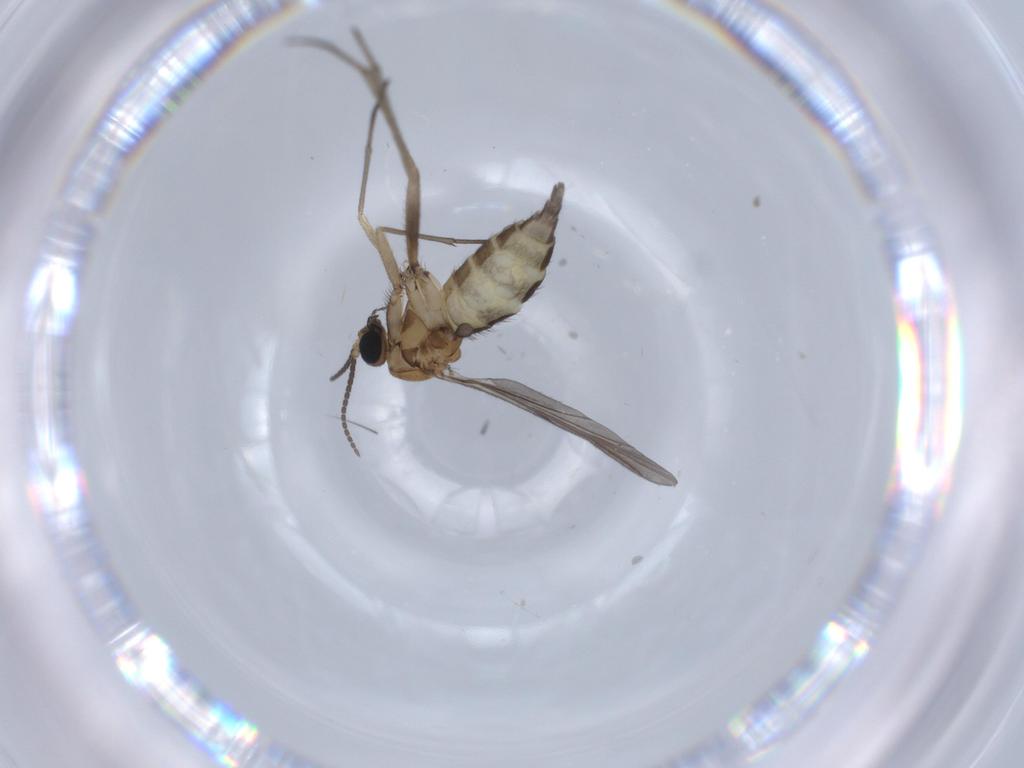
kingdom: Animalia
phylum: Arthropoda
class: Insecta
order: Diptera
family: Sciaridae
